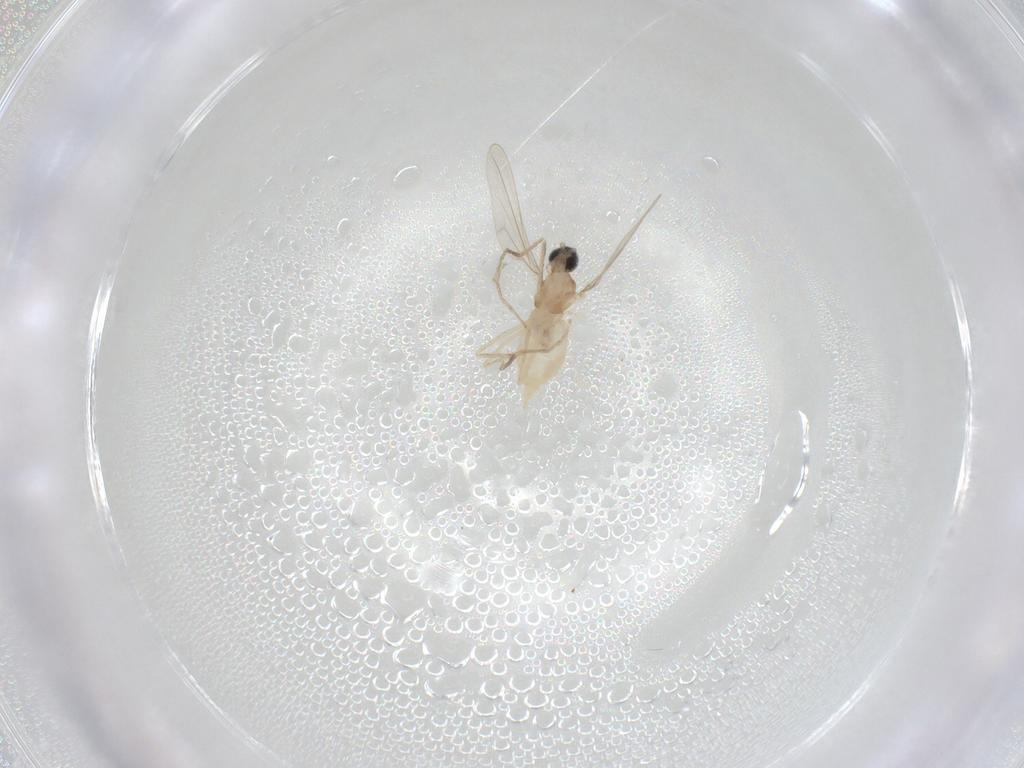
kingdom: Animalia
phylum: Arthropoda
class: Insecta
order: Diptera
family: Cecidomyiidae
